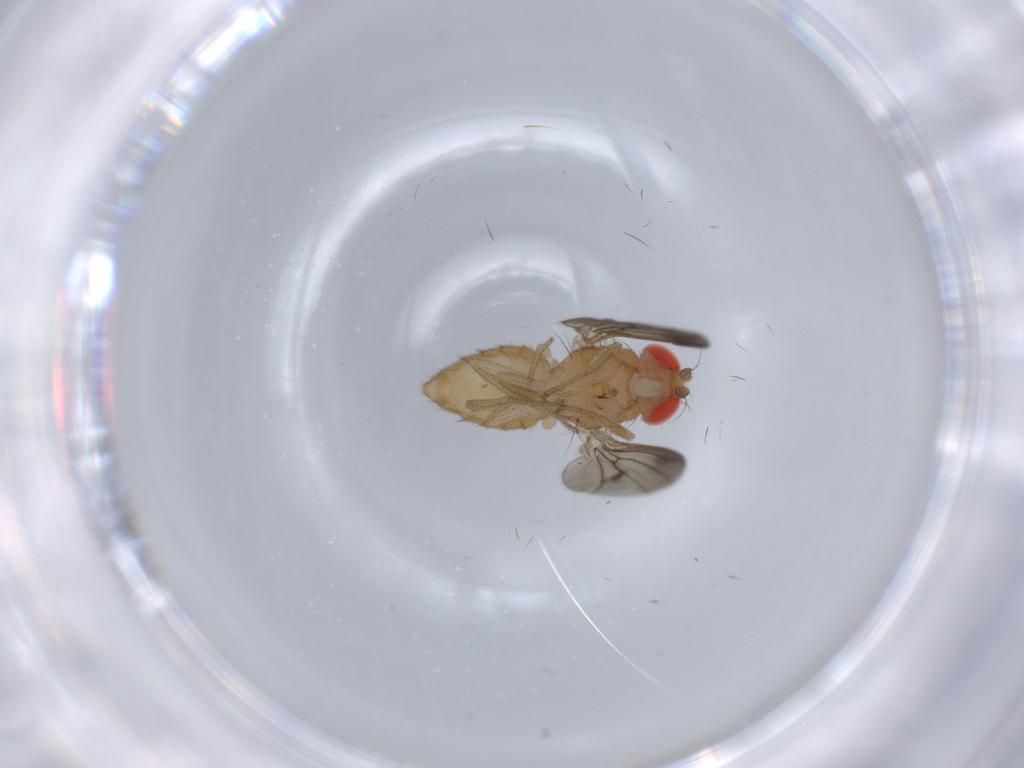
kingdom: Animalia
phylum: Arthropoda
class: Insecta
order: Diptera
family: Drosophilidae
